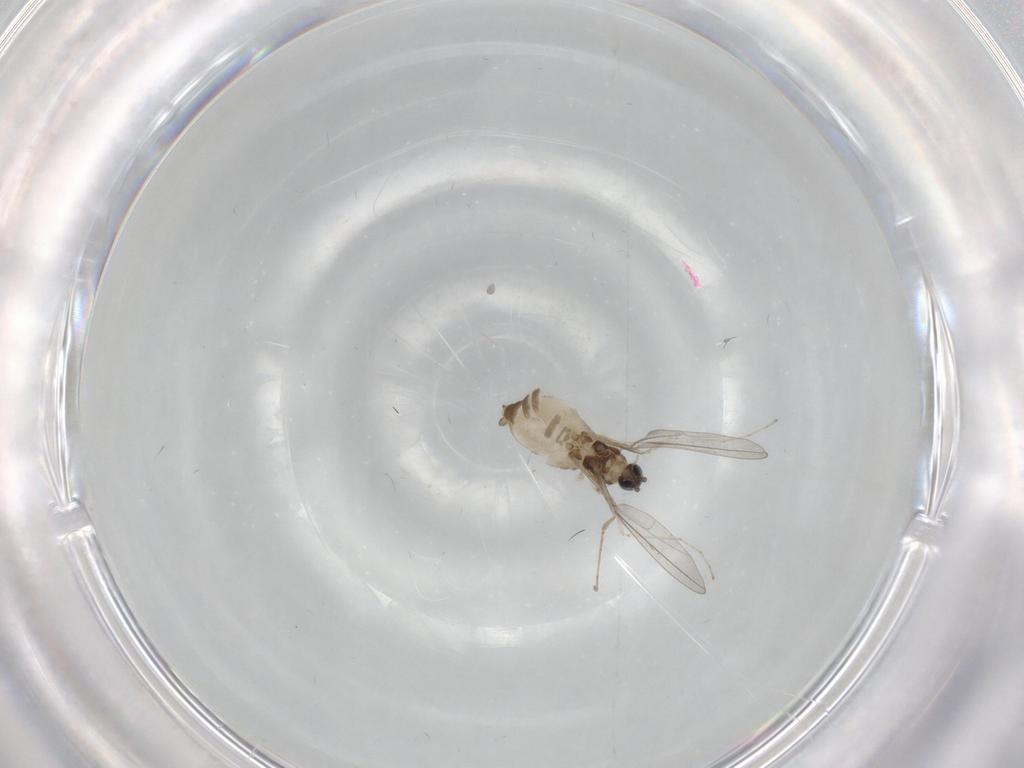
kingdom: Animalia
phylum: Arthropoda
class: Insecta
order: Diptera
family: Cecidomyiidae
